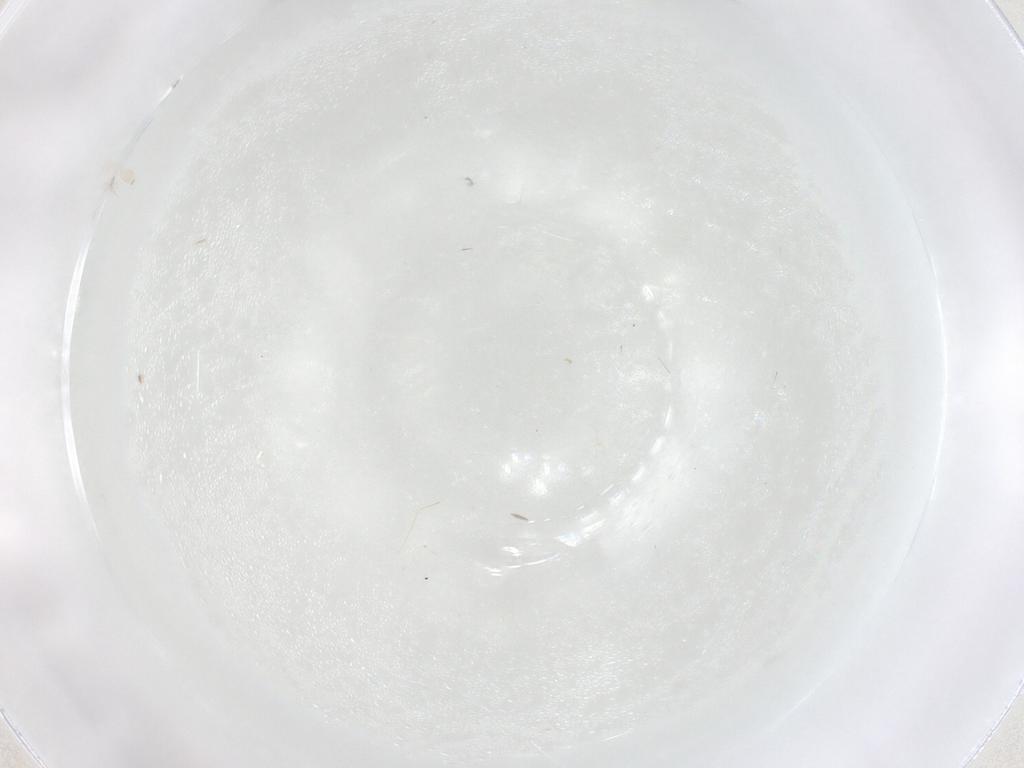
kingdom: Animalia
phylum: Arthropoda
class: Insecta
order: Hymenoptera
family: Figitidae
